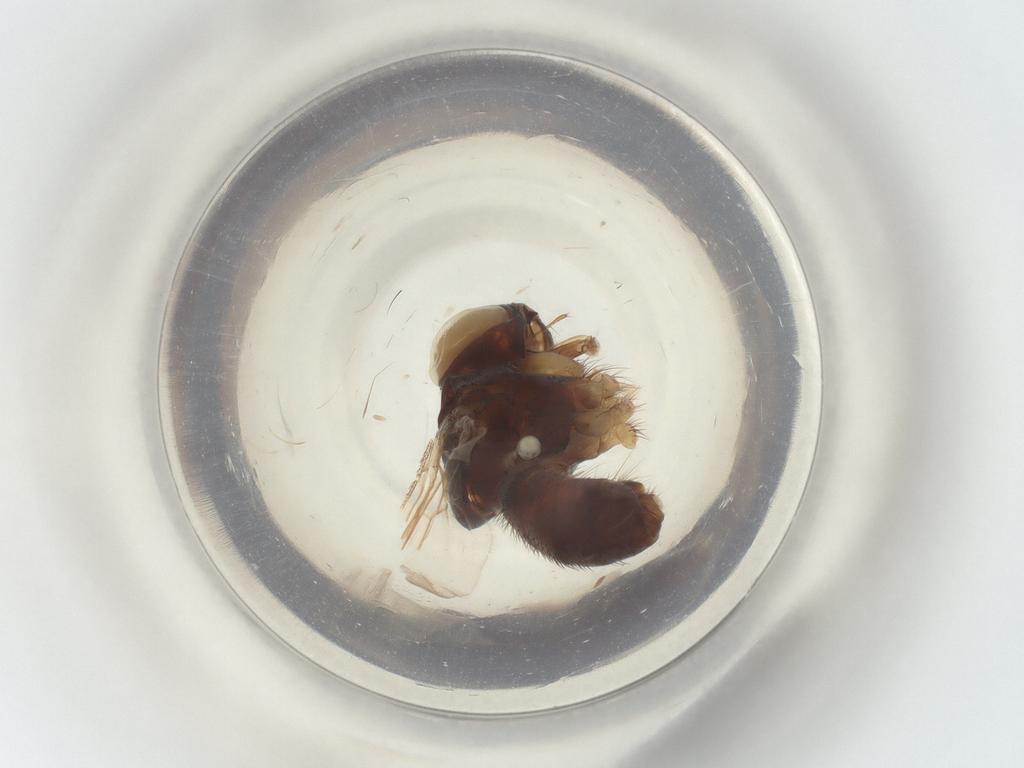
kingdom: Animalia
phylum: Arthropoda
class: Insecta
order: Diptera
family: Muscidae
